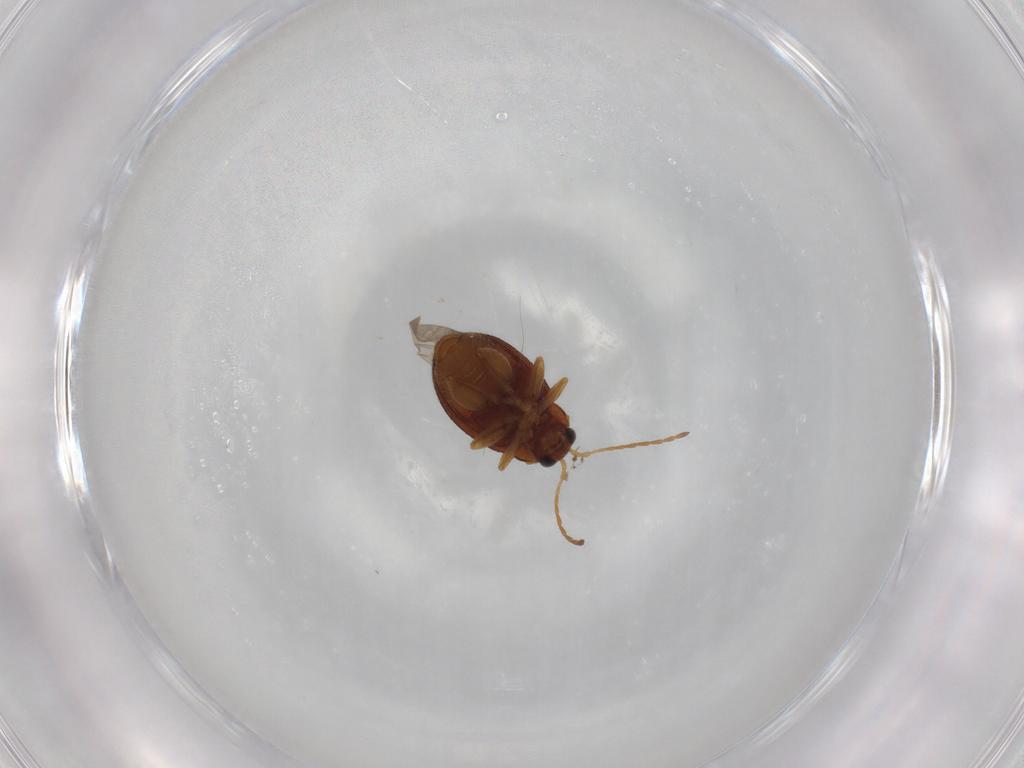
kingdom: Animalia
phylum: Arthropoda
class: Insecta
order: Coleoptera
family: Chrysomelidae
